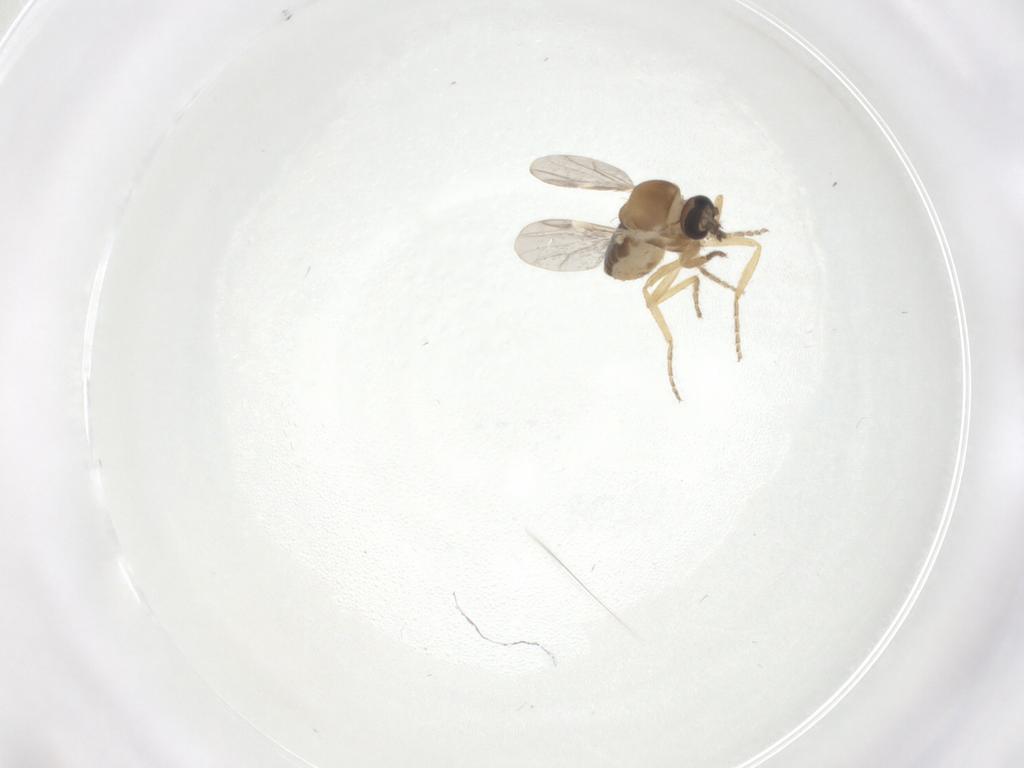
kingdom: Animalia
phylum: Arthropoda
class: Insecta
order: Diptera
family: Ceratopogonidae
